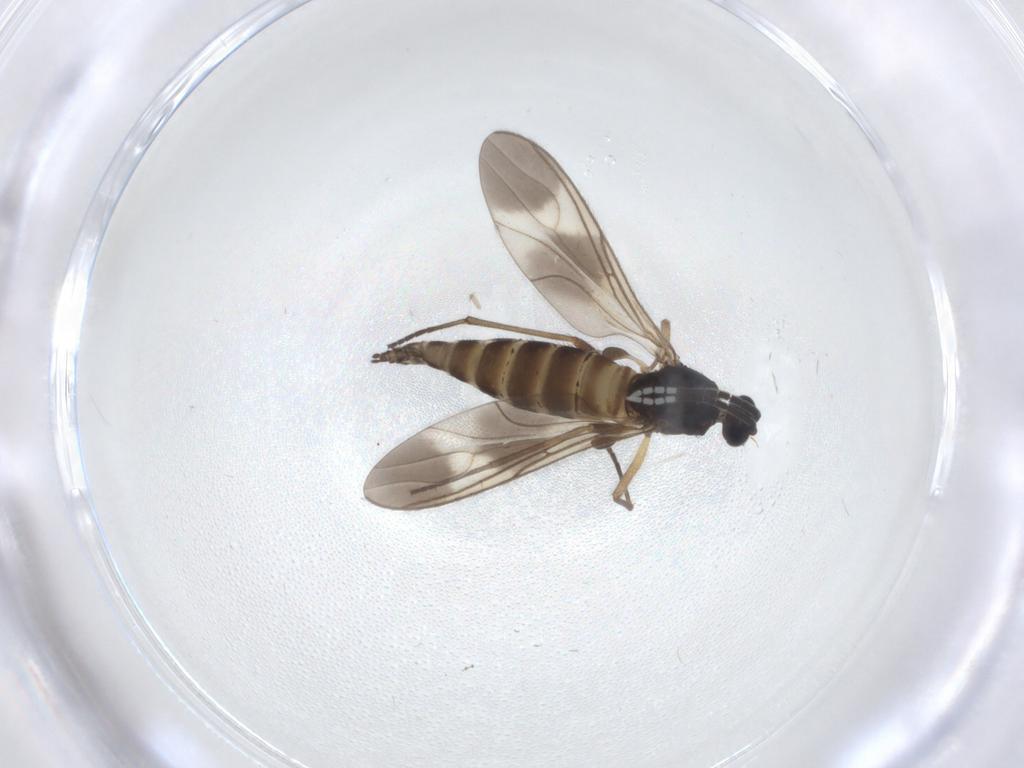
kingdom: Animalia
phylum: Arthropoda
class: Insecta
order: Diptera
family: Sciaridae
